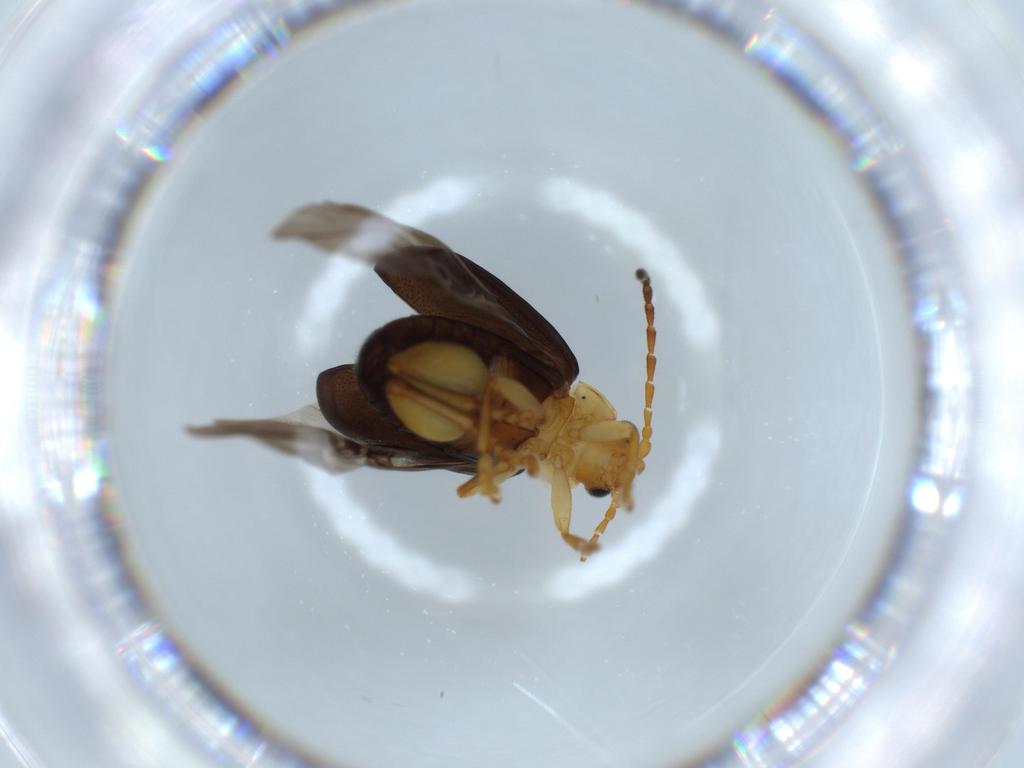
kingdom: Animalia
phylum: Arthropoda
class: Insecta
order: Coleoptera
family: Chrysomelidae
